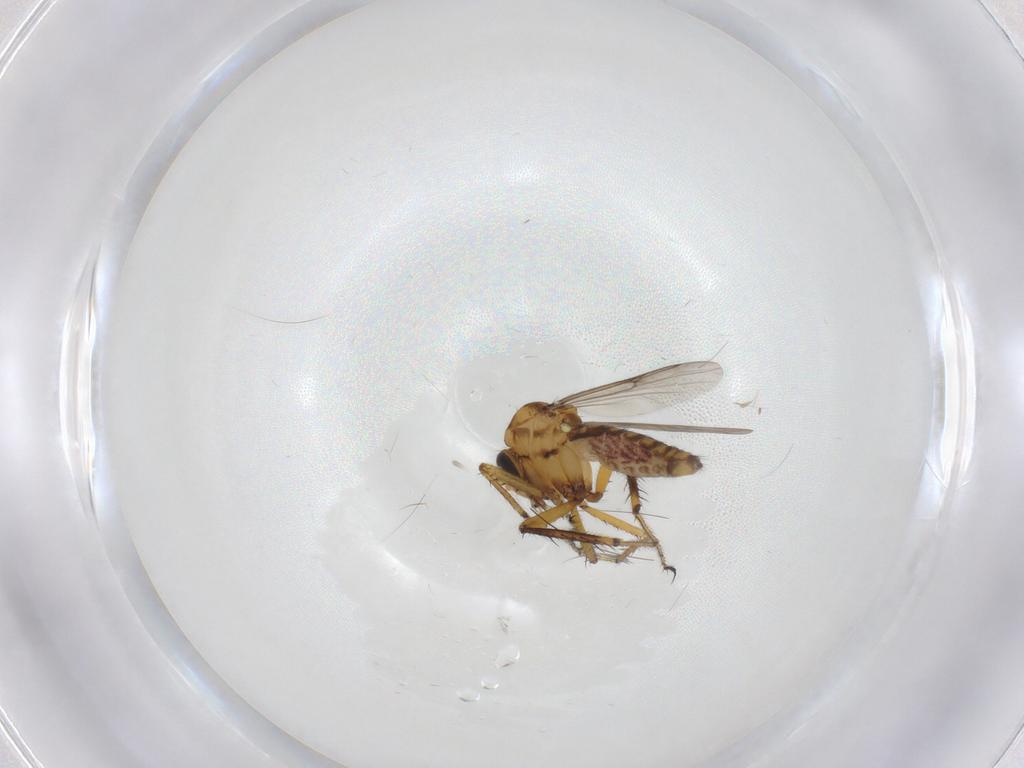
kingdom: Animalia
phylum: Arthropoda
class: Insecta
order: Diptera
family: Ceratopogonidae
